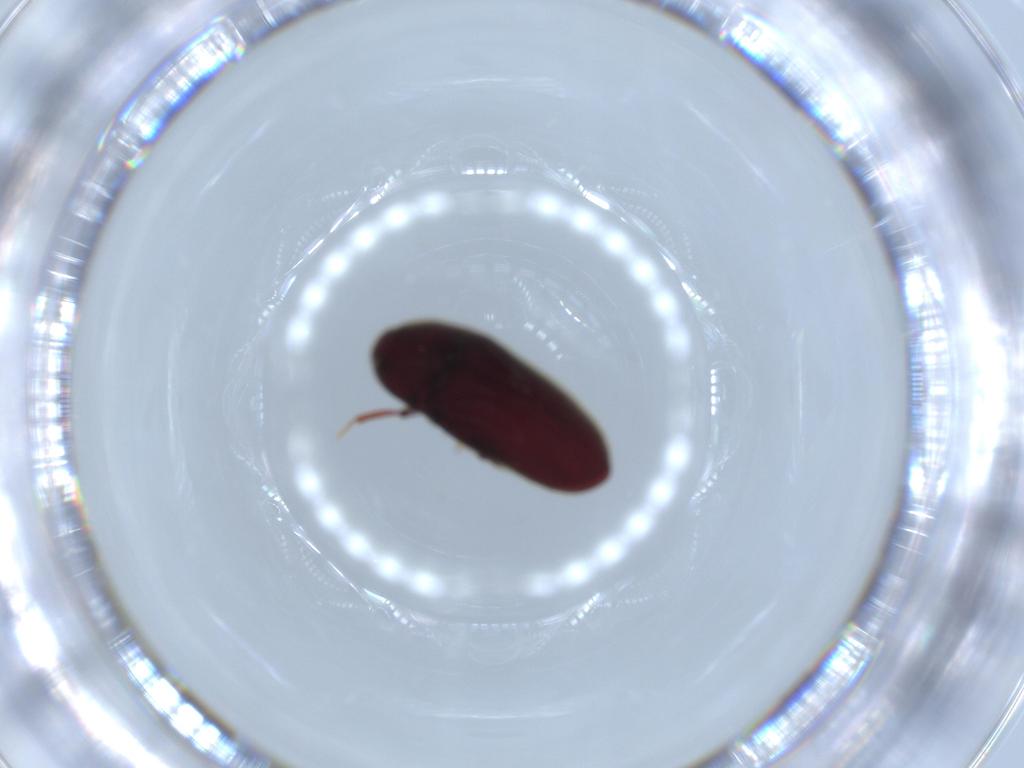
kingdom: Animalia
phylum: Arthropoda
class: Insecta
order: Coleoptera
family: Throscidae
